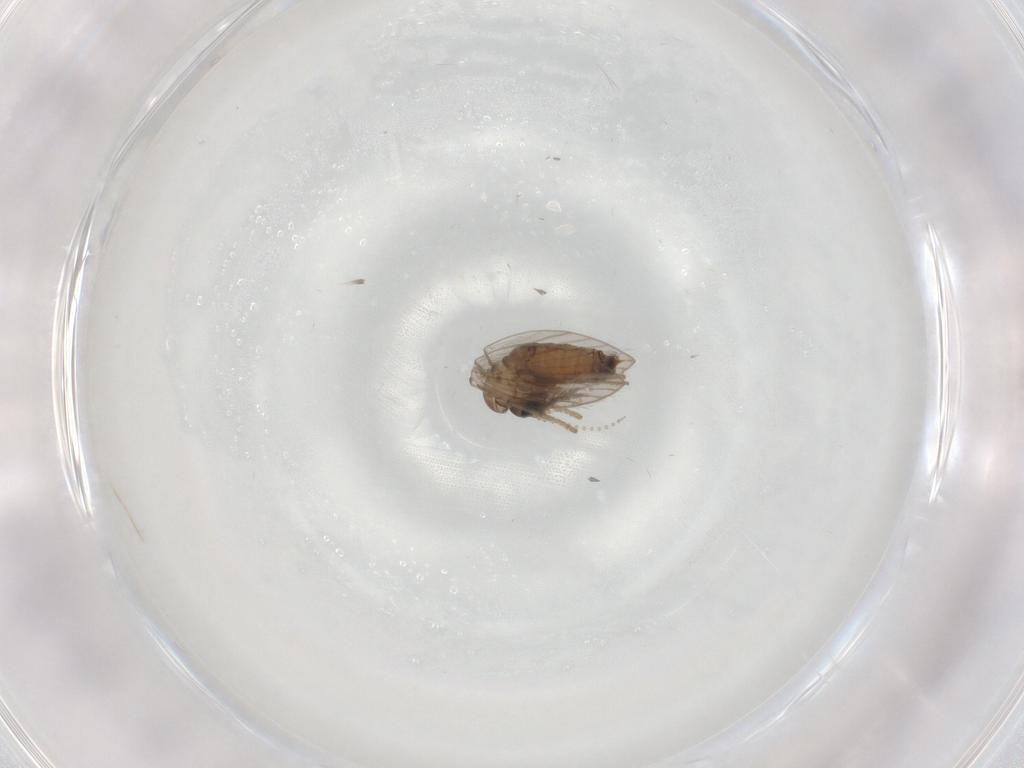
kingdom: Animalia
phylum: Arthropoda
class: Insecta
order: Diptera
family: Psychodidae
